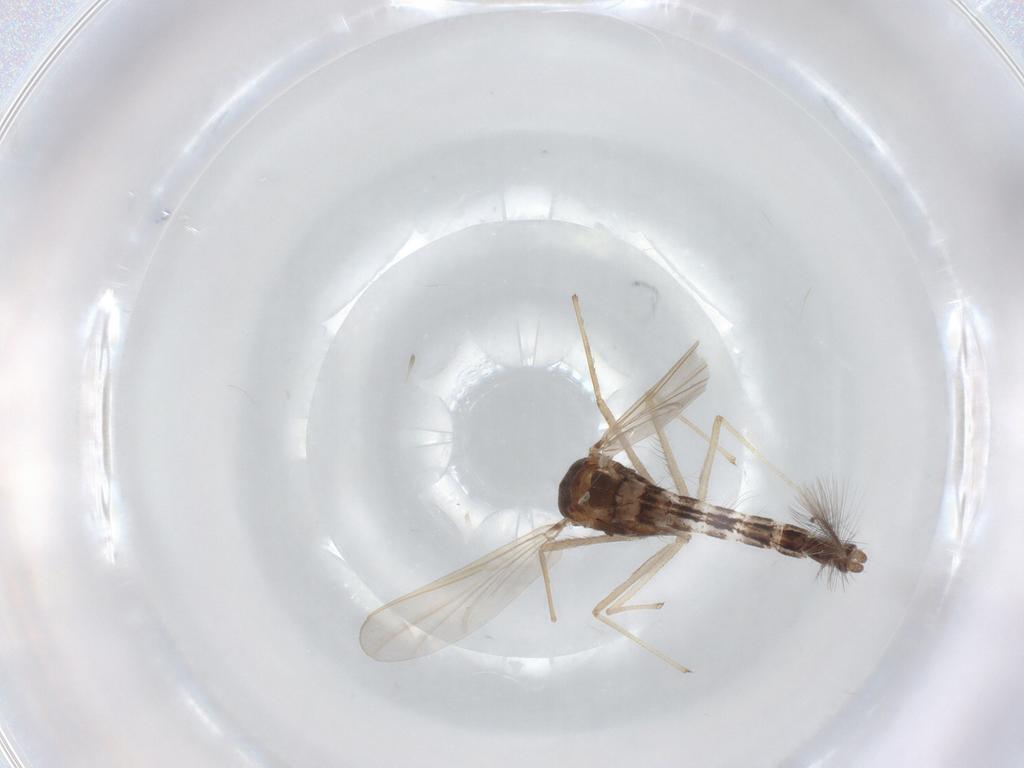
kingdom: Animalia
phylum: Arthropoda
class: Insecta
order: Diptera
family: Chironomidae
